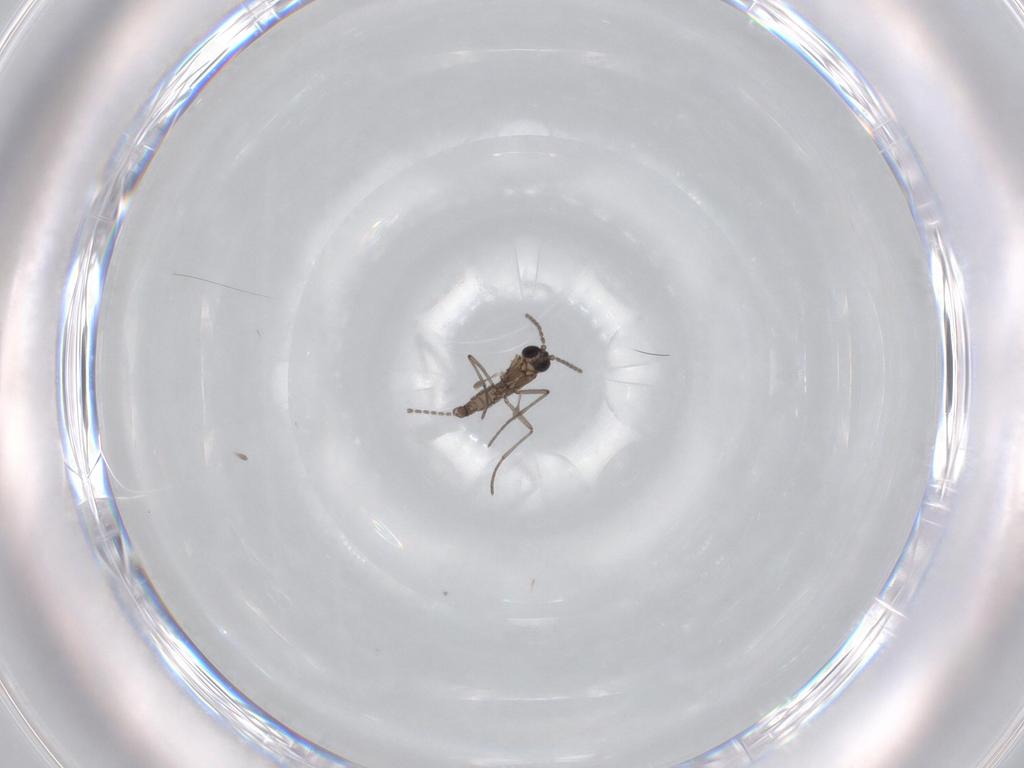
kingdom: Animalia
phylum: Arthropoda
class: Insecta
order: Diptera
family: Sciaridae
